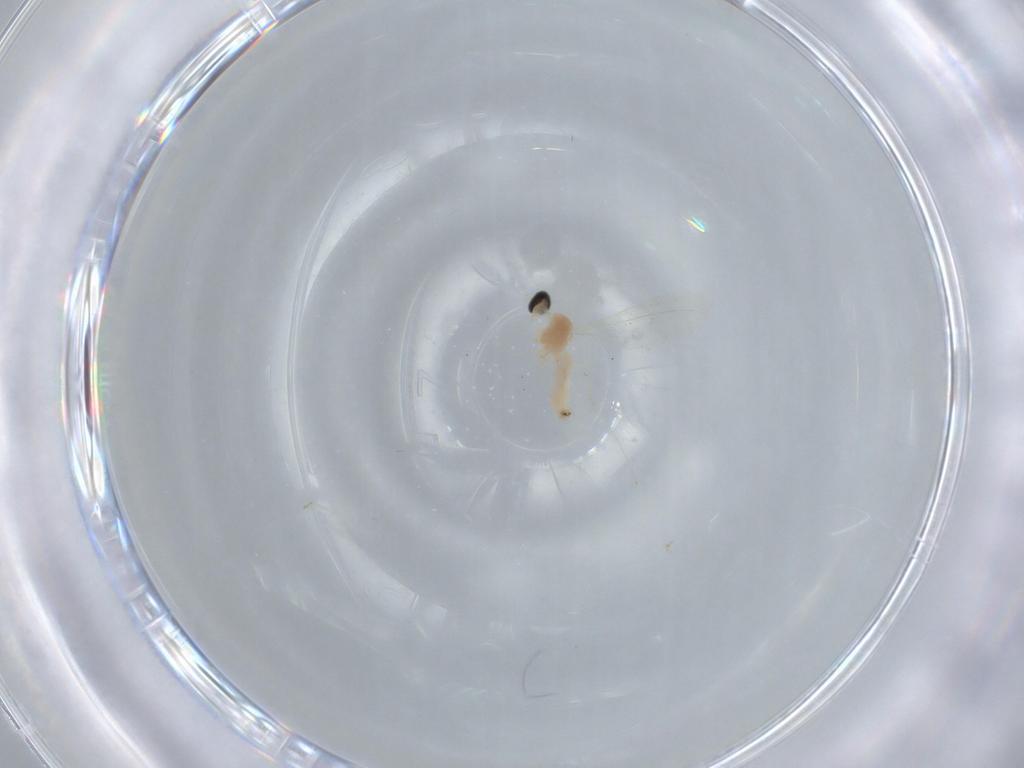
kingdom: Animalia
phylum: Arthropoda
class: Insecta
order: Diptera
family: Cecidomyiidae
